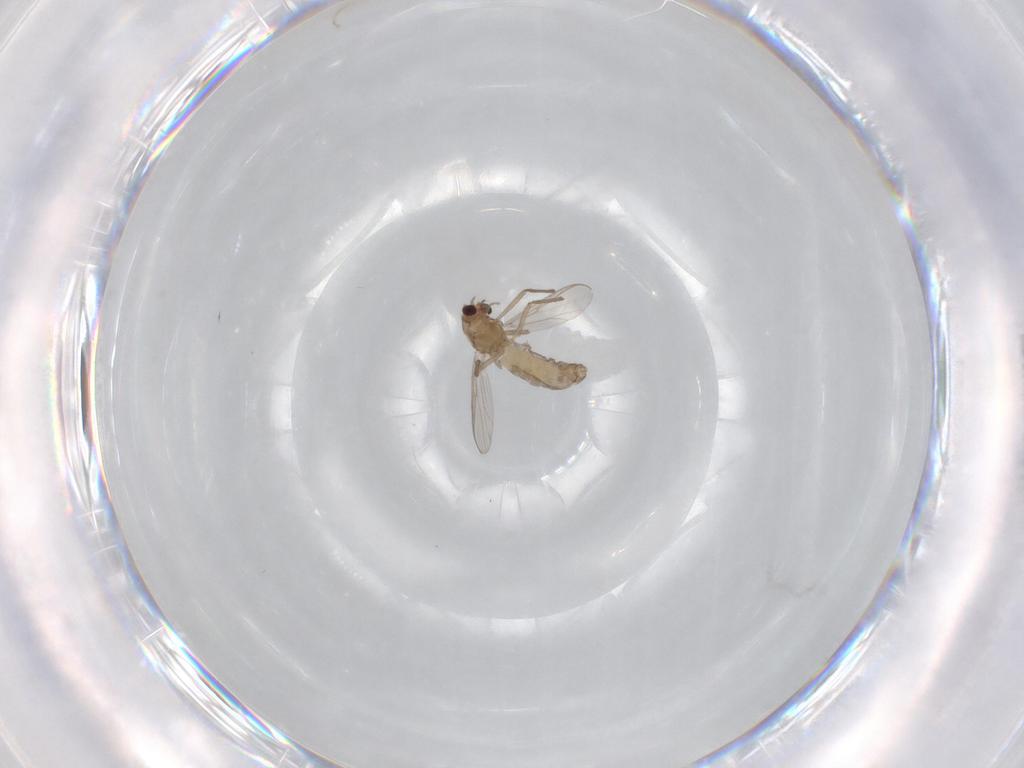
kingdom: Animalia
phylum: Arthropoda
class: Insecta
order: Diptera
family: Chironomidae
